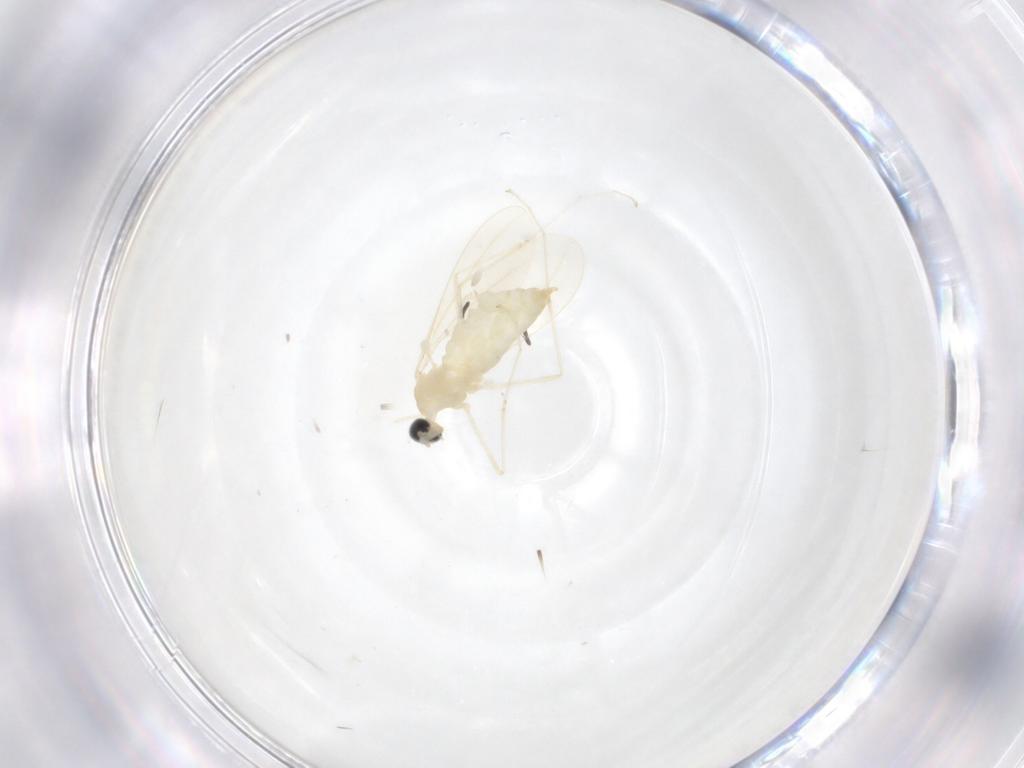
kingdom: Animalia
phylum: Arthropoda
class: Insecta
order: Diptera
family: Cecidomyiidae
